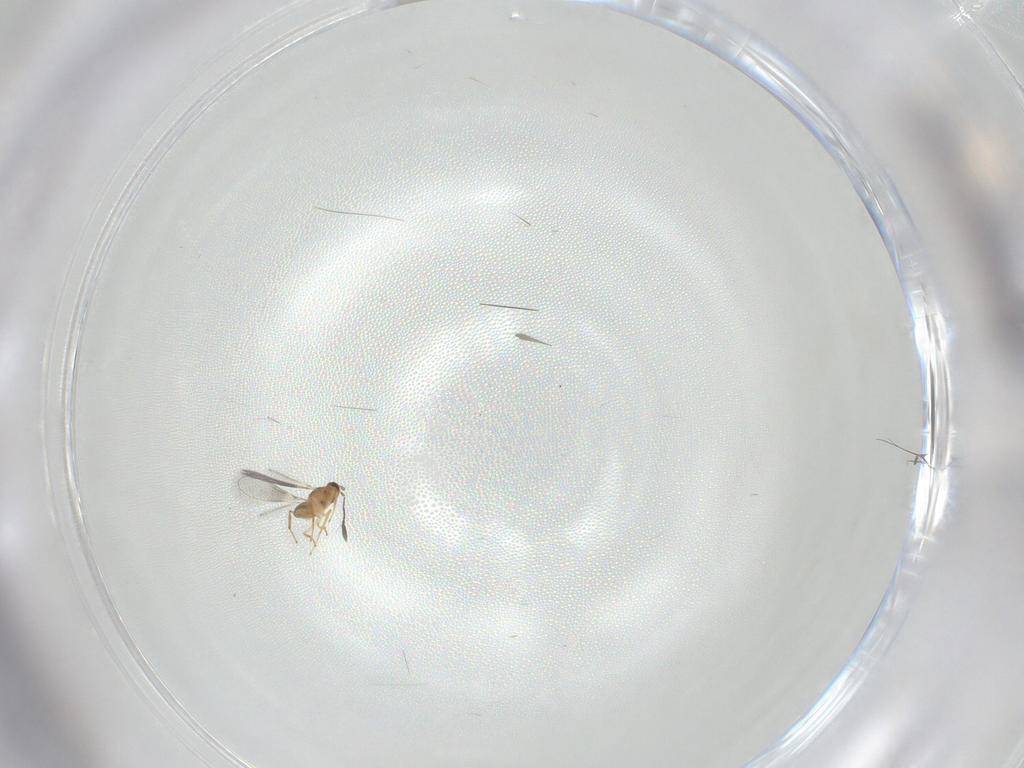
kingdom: Animalia
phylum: Arthropoda
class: Insecta
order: Hymenoptera
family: Mymaridae
